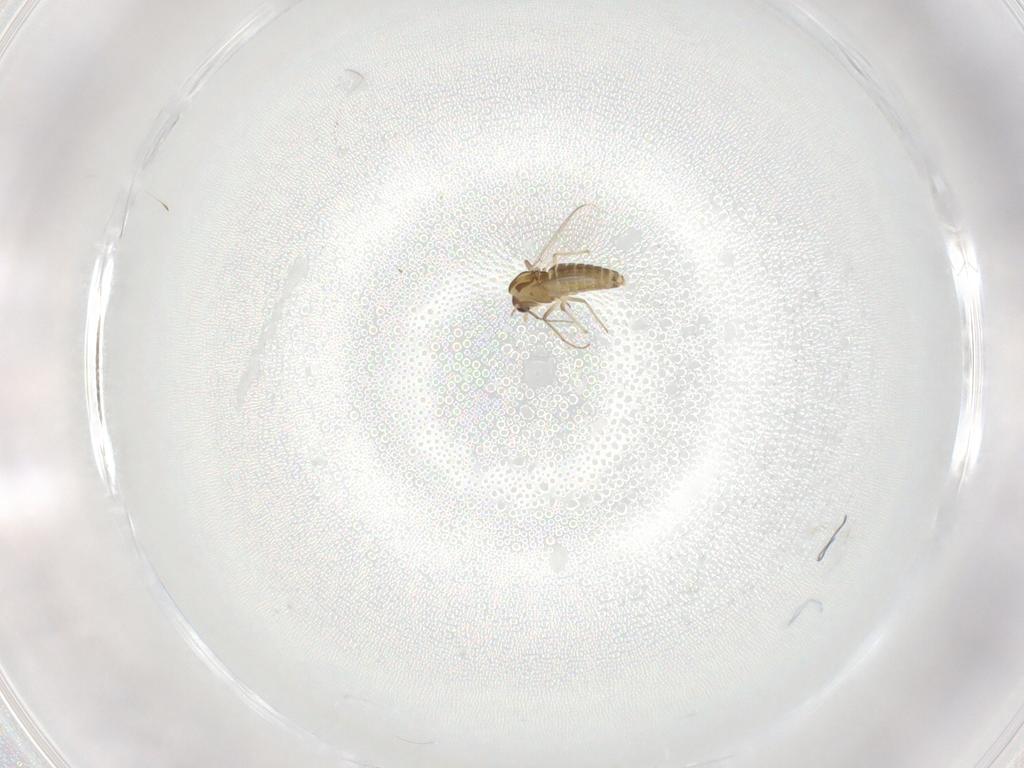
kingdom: Animalia
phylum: Arthropoda
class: Insecta
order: Diptera
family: Chironomidae
